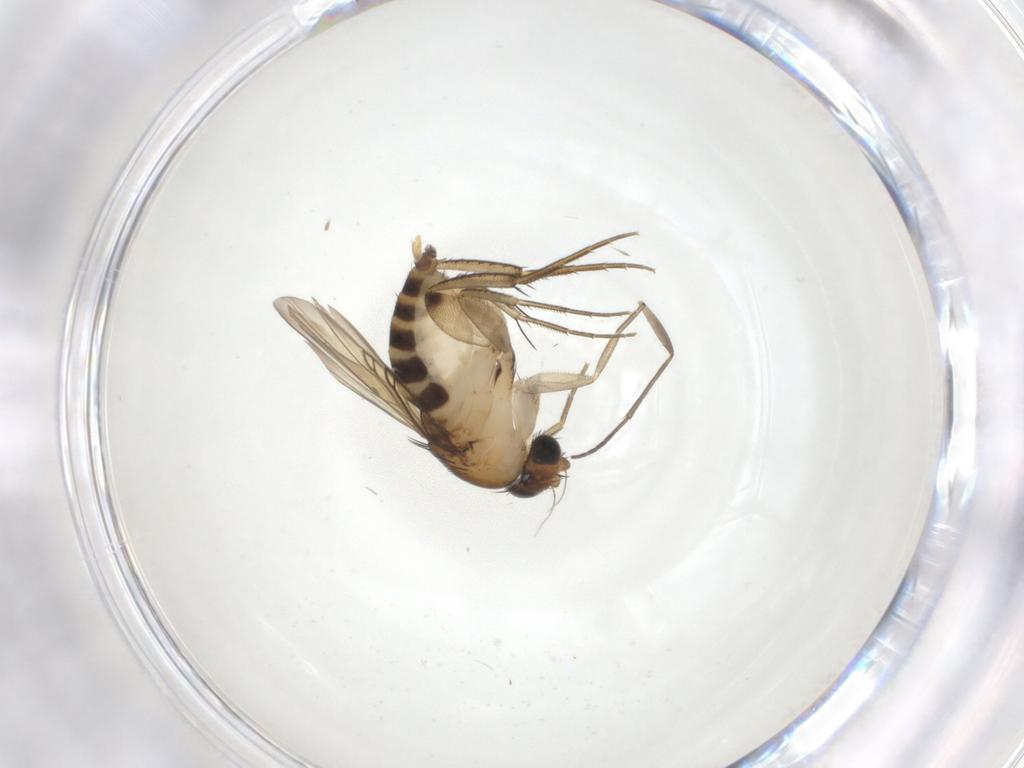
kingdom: Animalia
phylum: Arthropoda
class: Insecta
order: Diptera
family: Phoridae
